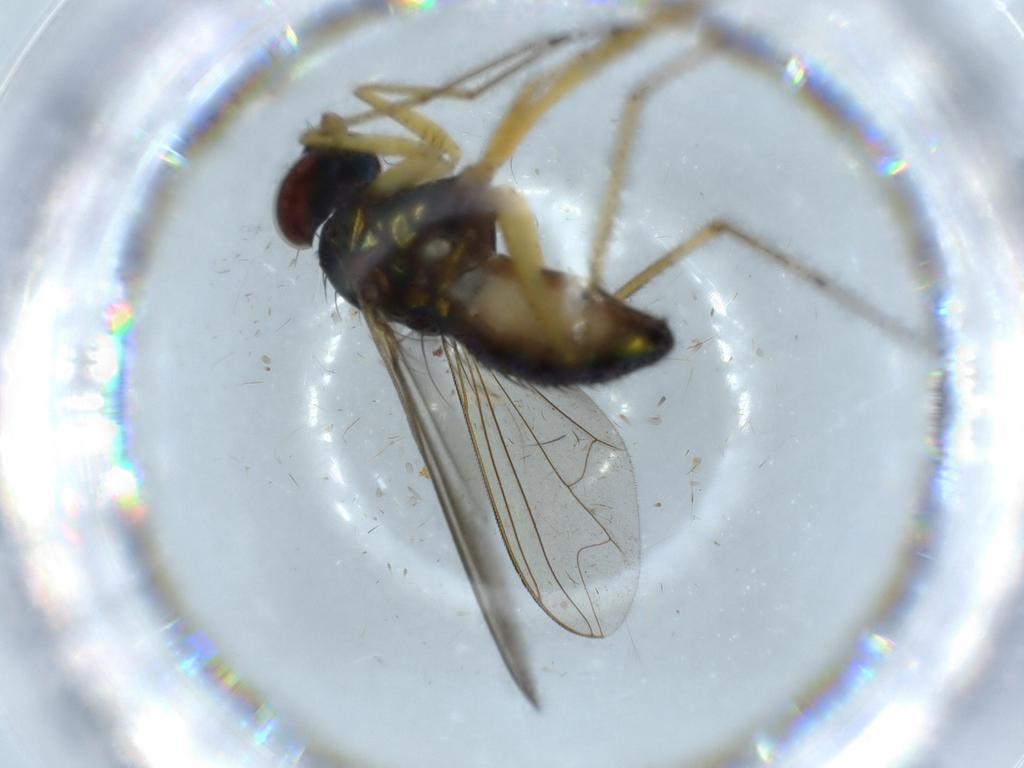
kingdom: Animalia
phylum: Arthropoda
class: Insecta
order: Diptera
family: Dolichopodidae
